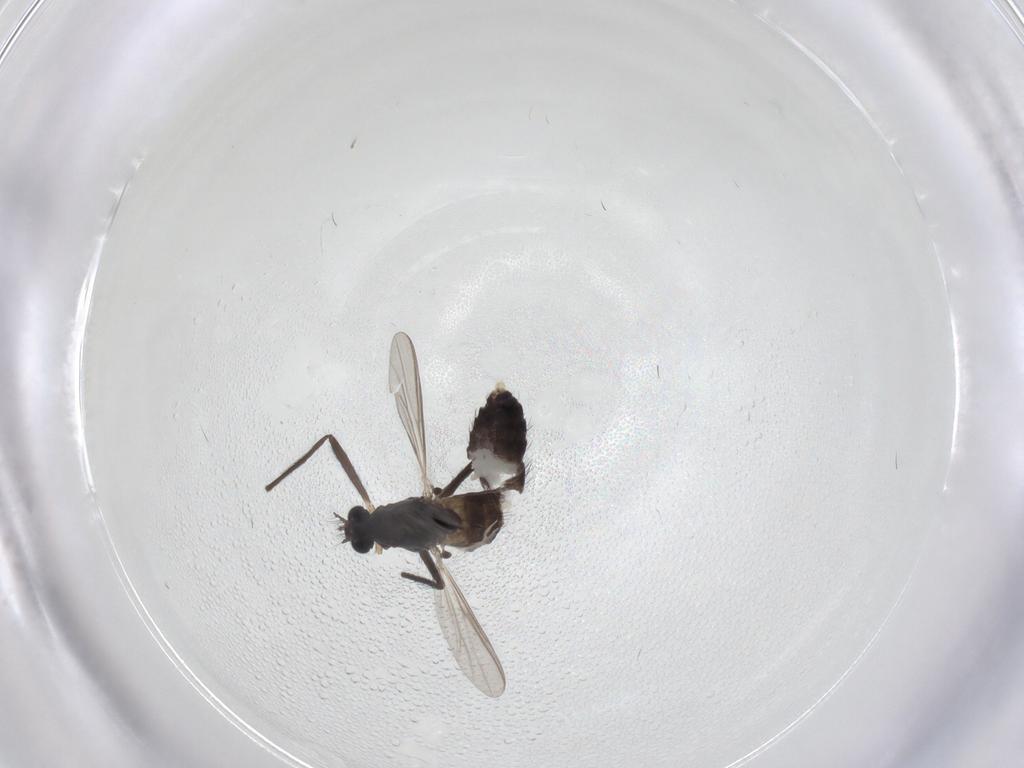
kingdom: Animalia
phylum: Arthropoda
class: Insecta
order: Diptera
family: Chironomidae
